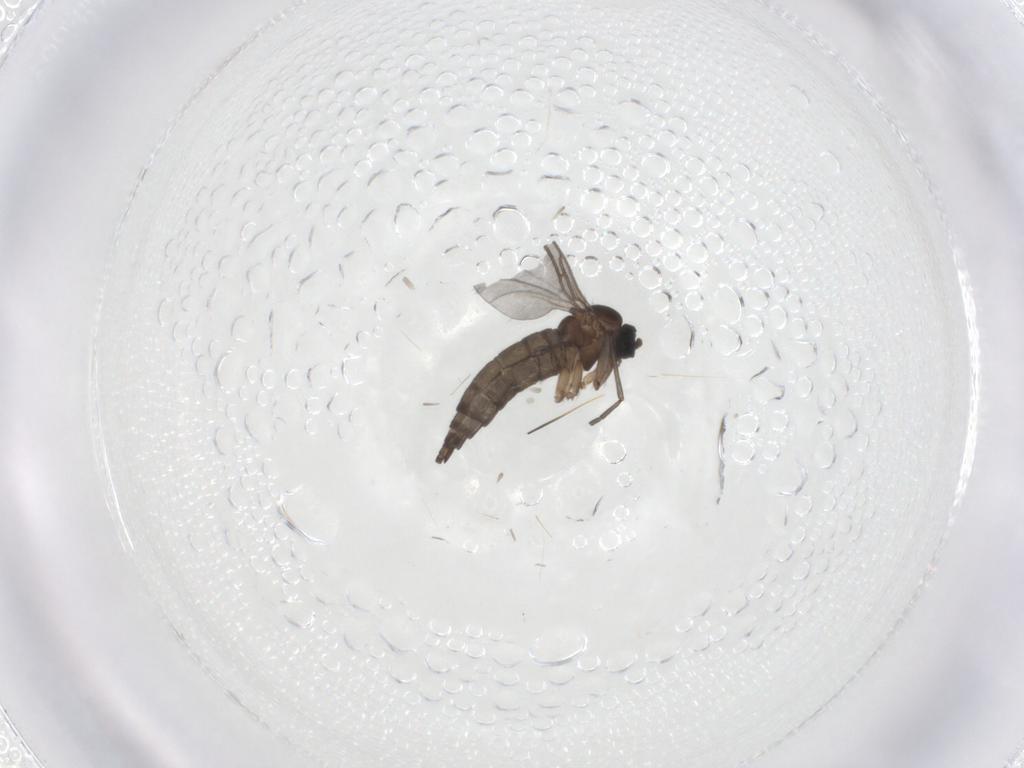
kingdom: Animalia
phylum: Arthropoda
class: Insecta
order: Diptera
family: Sciaridae
